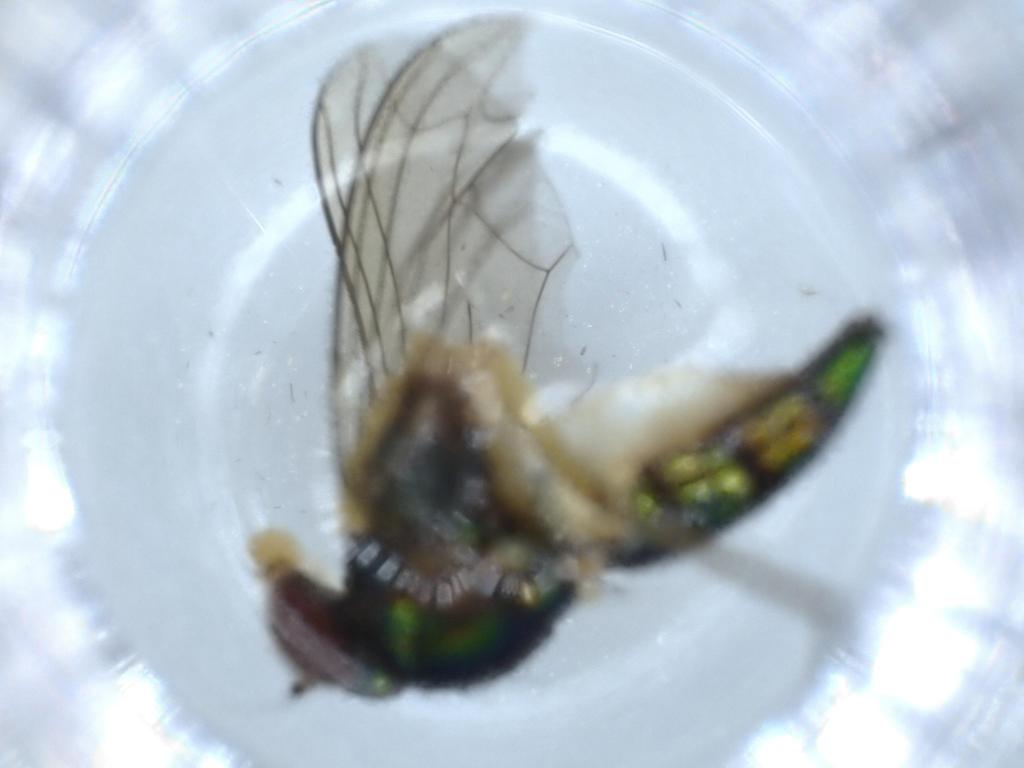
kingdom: Animalia
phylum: Arthropoda
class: Insecta
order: Diptera
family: Dolichopodidae
